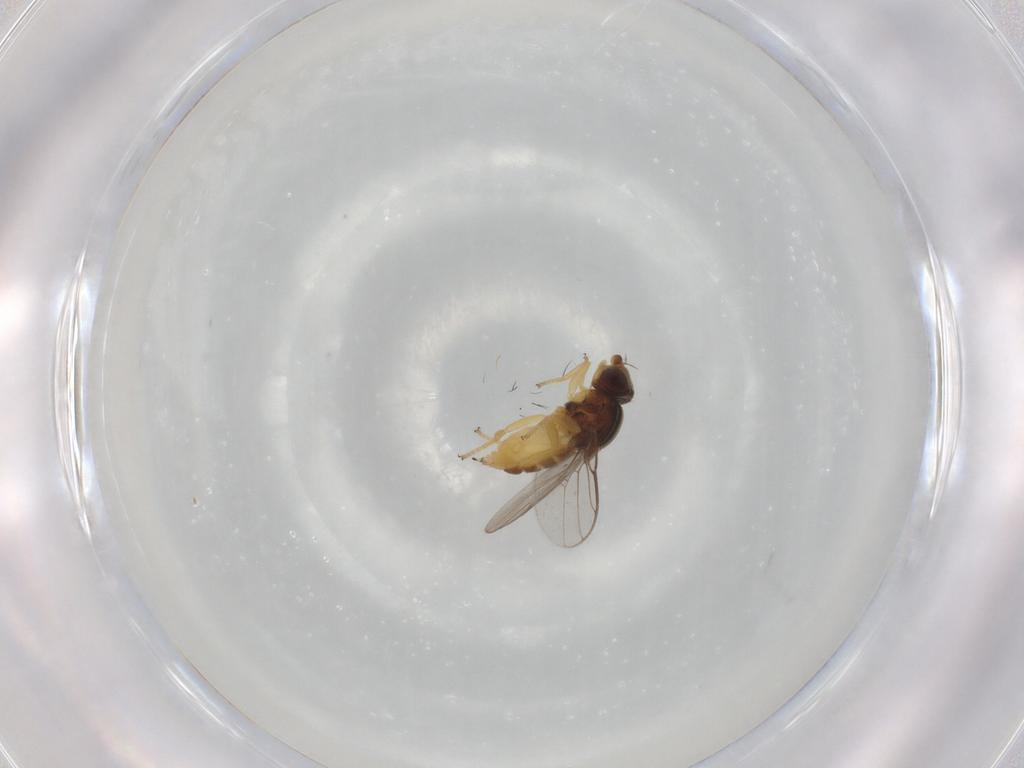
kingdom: Animalia
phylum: Arthropoda
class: Insecta
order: Diptera
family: Chloropidae
